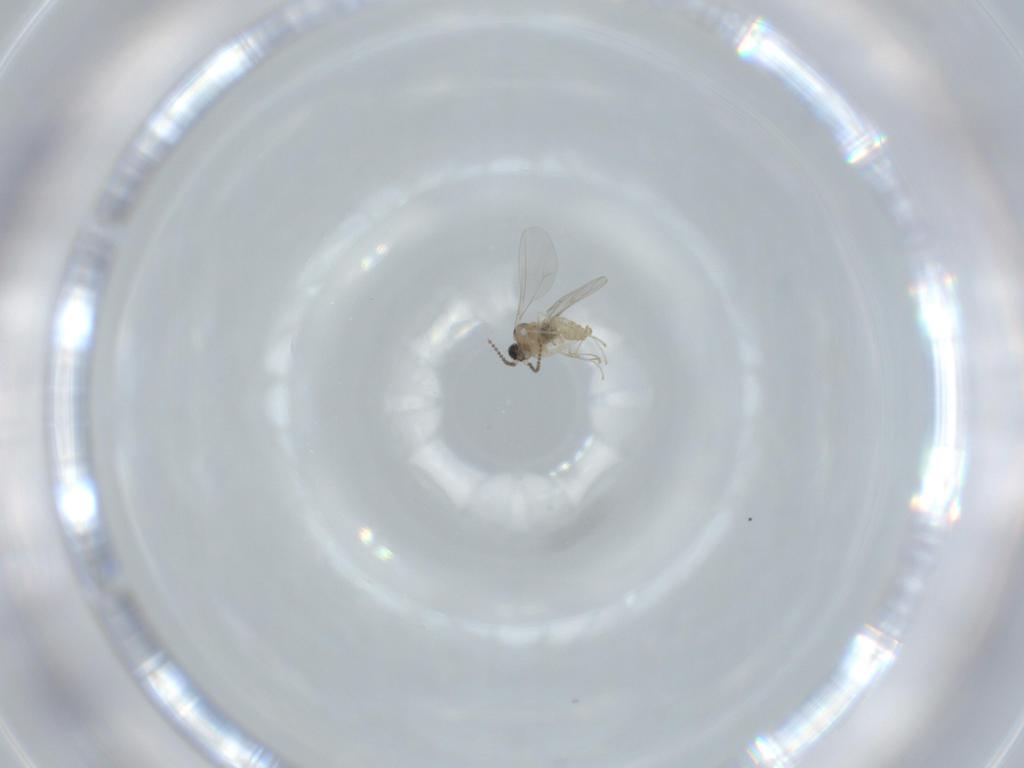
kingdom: Animalia
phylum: Arthropoda
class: Insecta
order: Diptera
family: Cecidomyiidae
